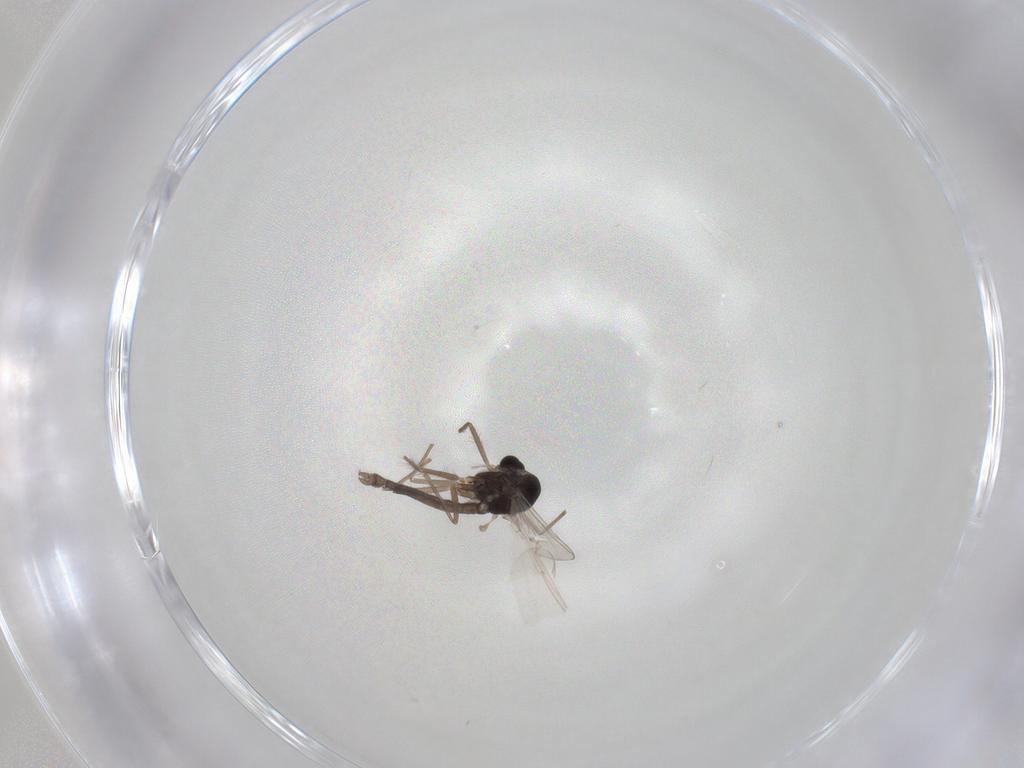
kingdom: Animalia
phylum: Arthropoda
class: Insecta
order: Diptera
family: Chironomidae
